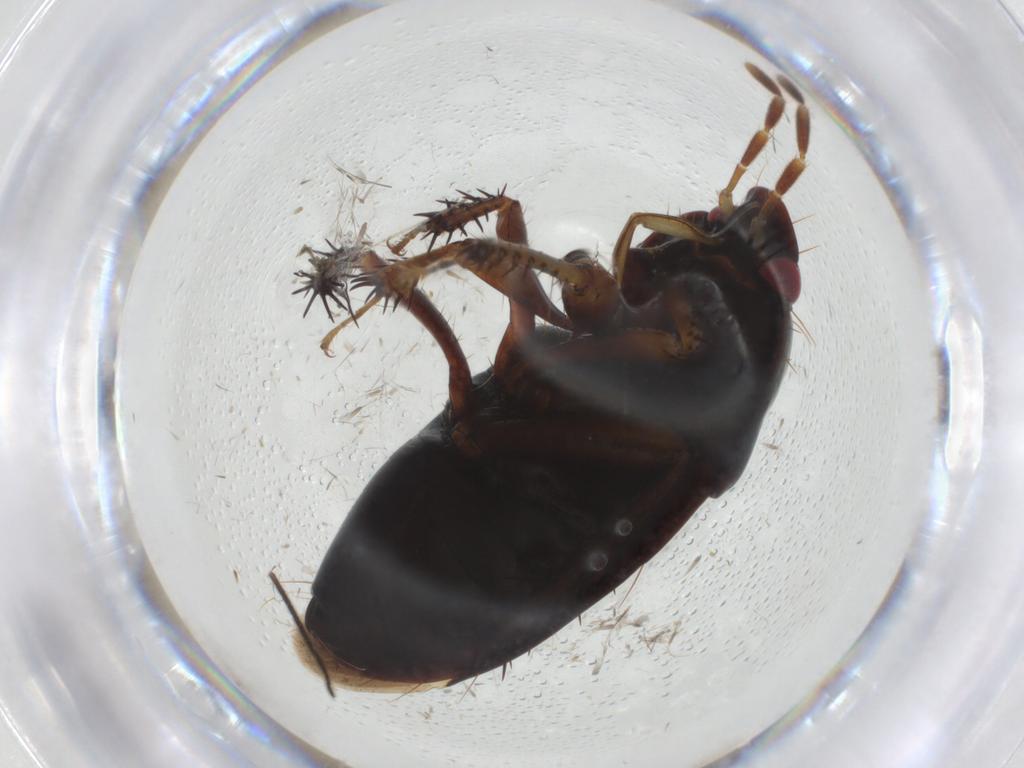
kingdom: Animalia
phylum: Arthropoda
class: Insecta
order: Hemiptera
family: Cydnidae
